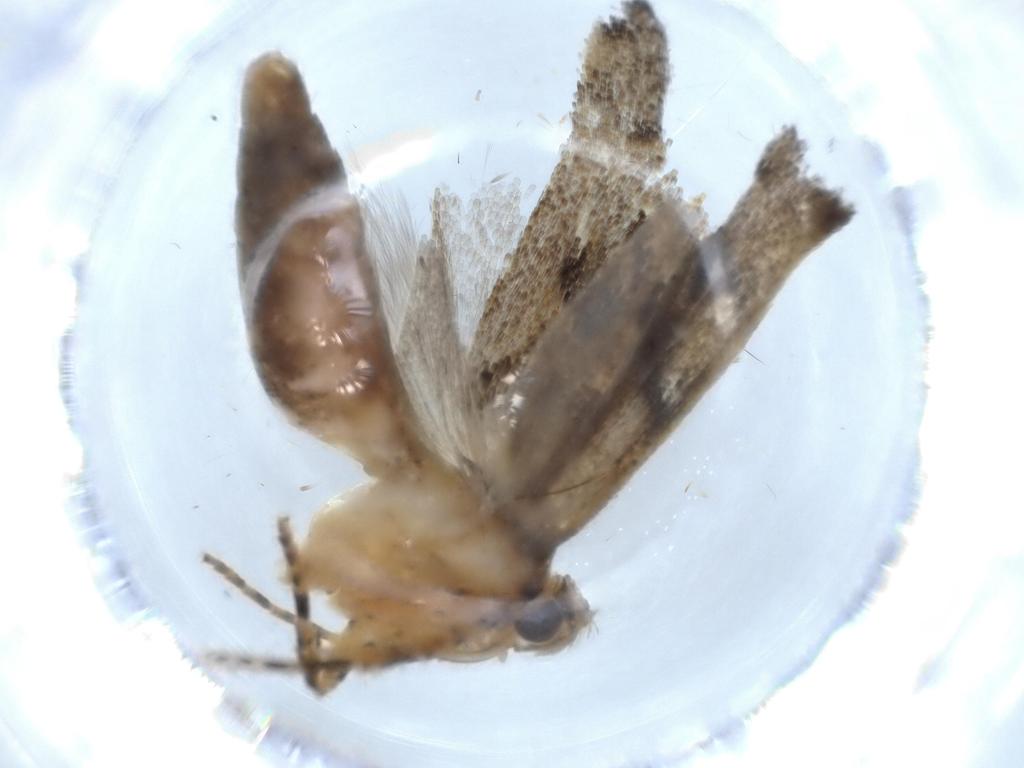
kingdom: Animalia
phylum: Arthropoda
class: Insecta
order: Lepidoptera
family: Gelechiidae
